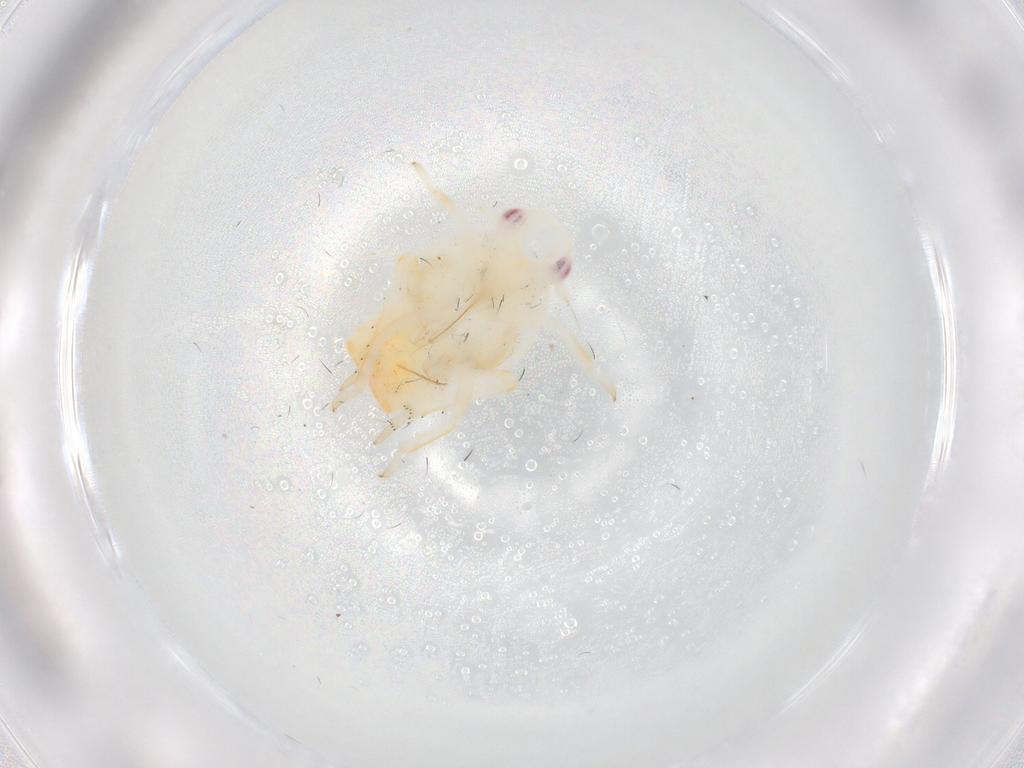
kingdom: Animalia
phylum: Arthropoda
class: Insecta
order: Hemiptera
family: Flatidae
